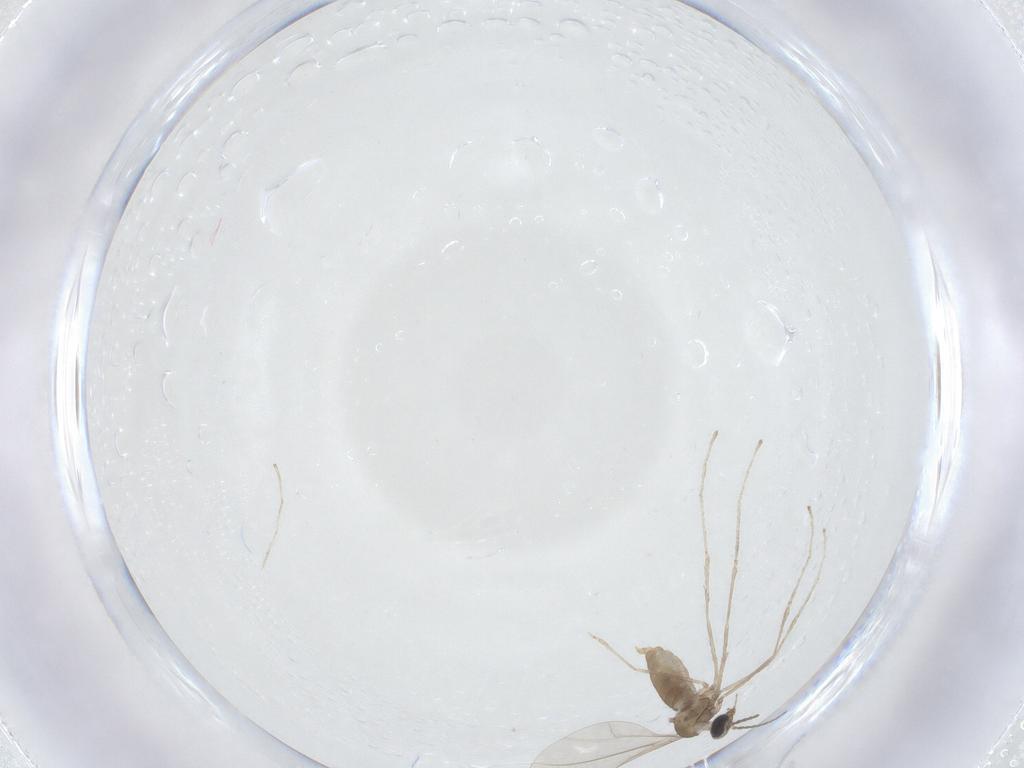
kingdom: Animalia
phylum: Arthropoda
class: Insecta
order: Diptera
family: Cecidomyiidae
